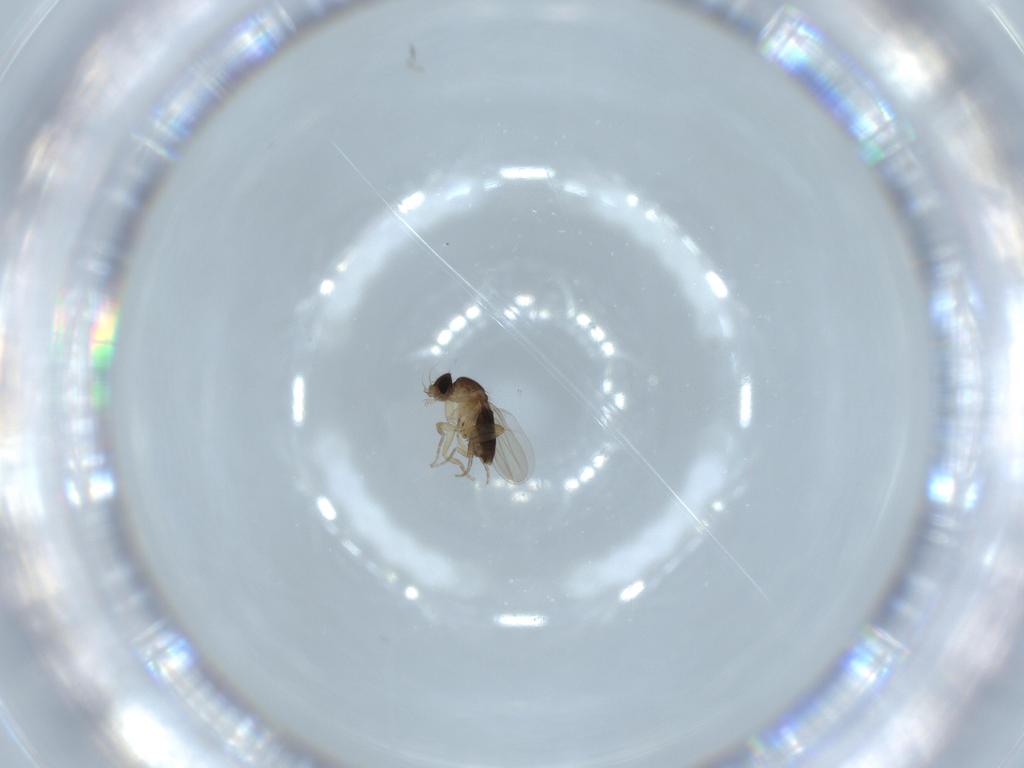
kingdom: Animalia
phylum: Arthropoda
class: Insecta
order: Diptera
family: Phoridae
